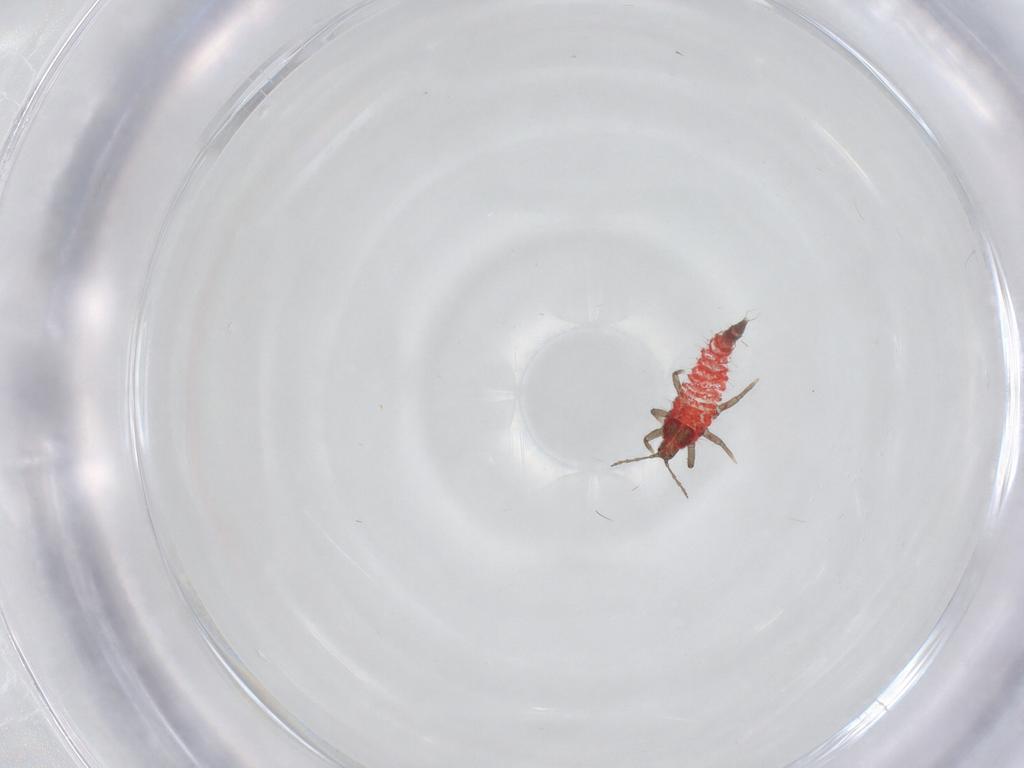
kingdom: Animalia
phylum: Arthropoda
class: Insecta
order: Thysanoptera
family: Phlaeothripidae
